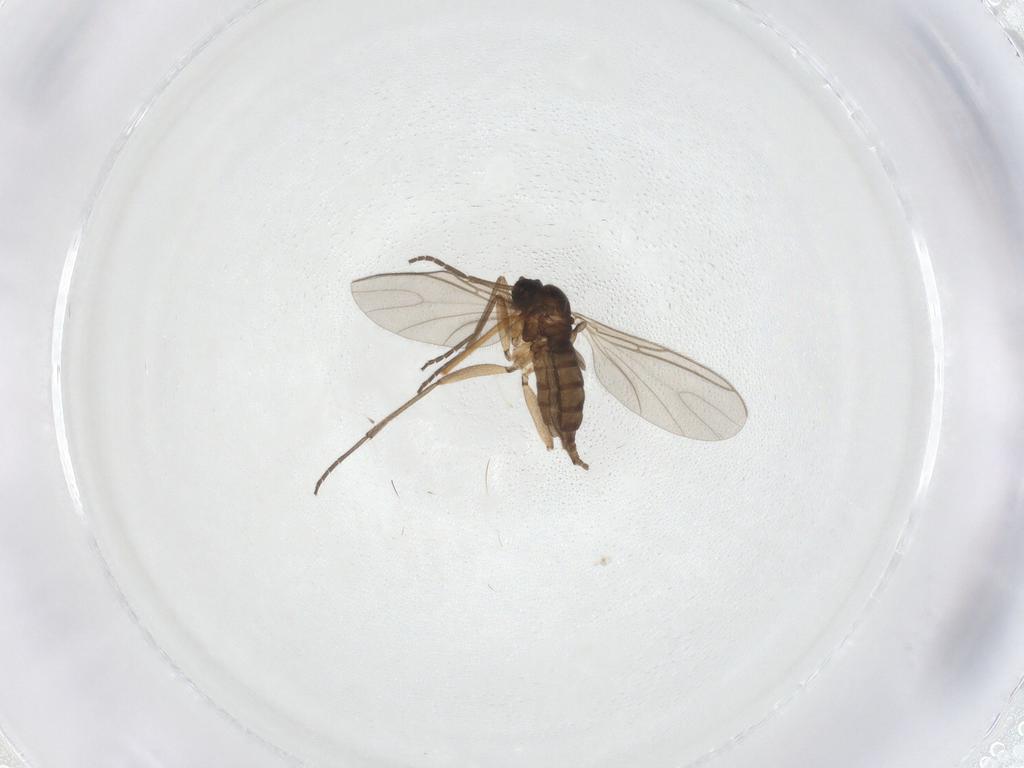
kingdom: Animalia
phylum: Arthropoda
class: Insecta
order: Diptera
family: Sciaridae
